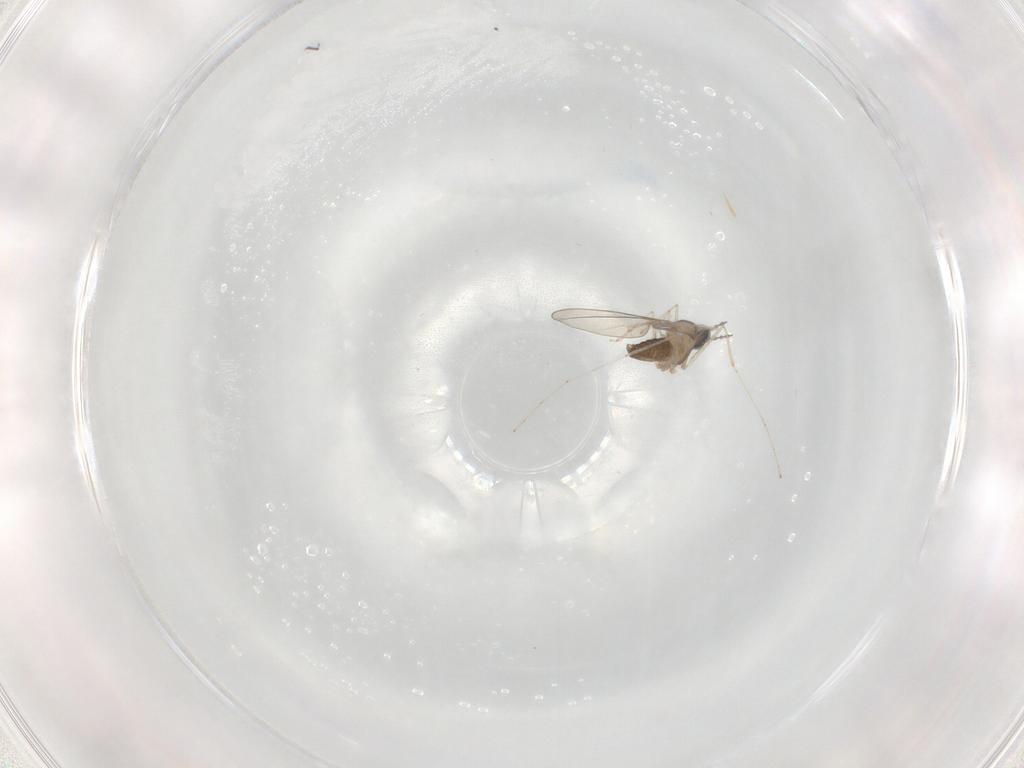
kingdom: Animalia
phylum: Arthropoda
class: Insecta
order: Diptera
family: Cecidomyiidae
